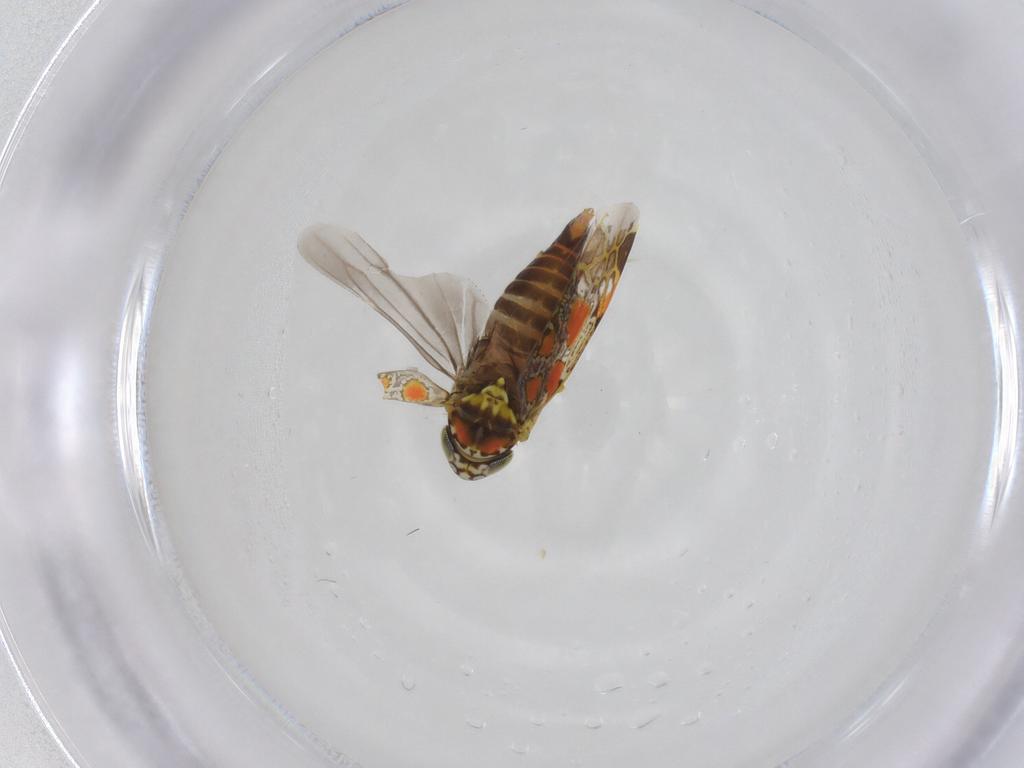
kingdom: Animalia
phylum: Arthropoda
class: Insecta
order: Hemiptera
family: Cicadellidae
